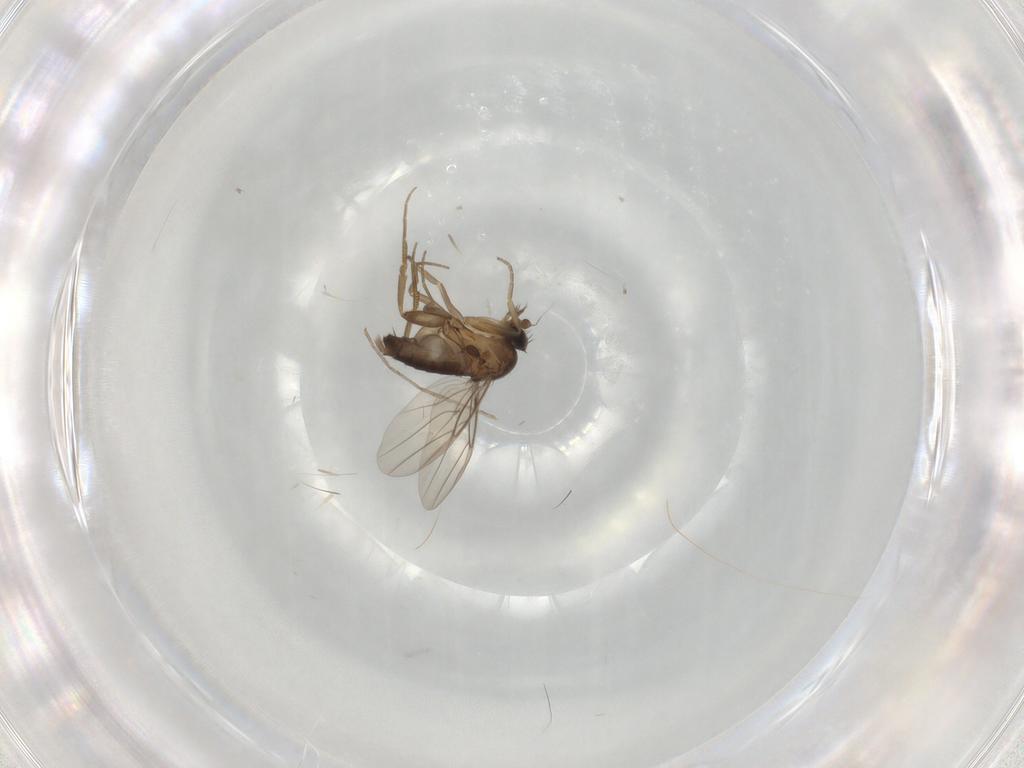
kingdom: Animalia
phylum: Arthropoda
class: Insecta
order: Diptera
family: Phoridae
